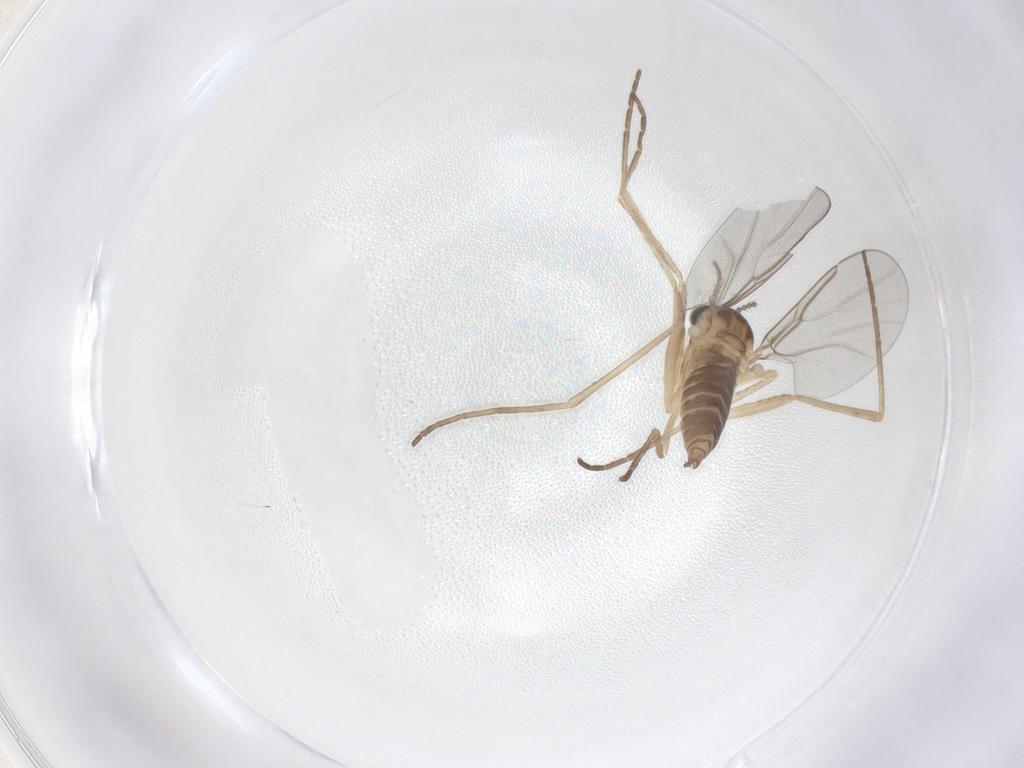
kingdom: Animalia
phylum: Arthropoda
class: Insecta
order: Diptera
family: Cecidomyiidae
